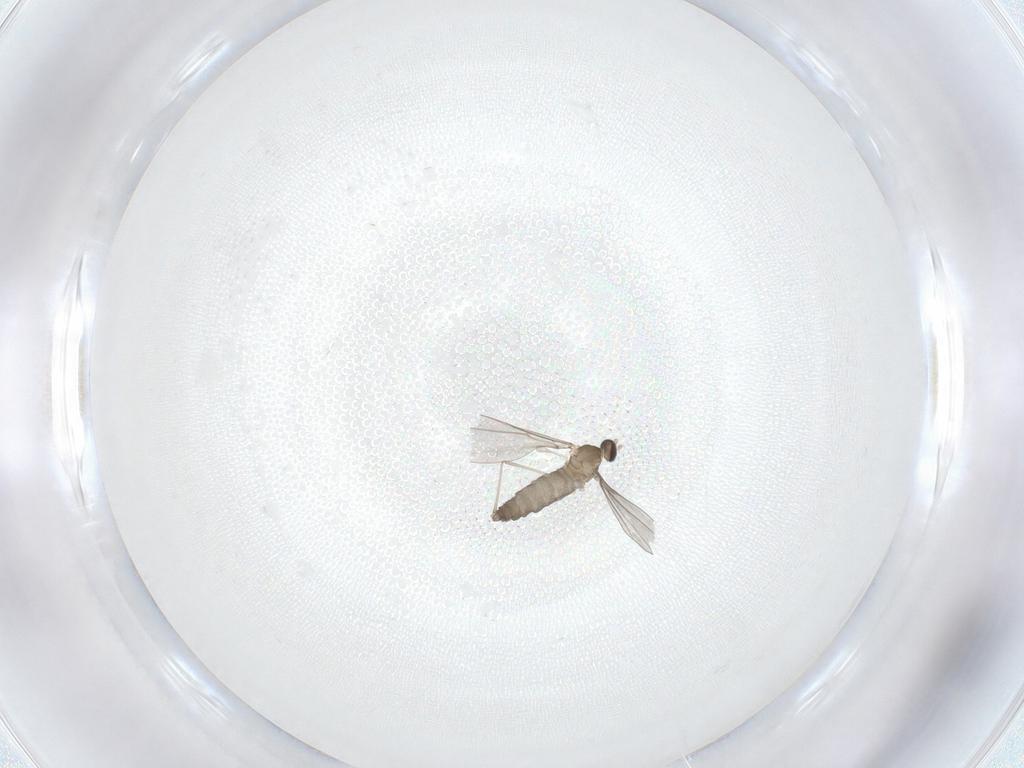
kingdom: Animalia
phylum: Arthropoda
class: Insecta
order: Diptera
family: Cecidomyiidae
